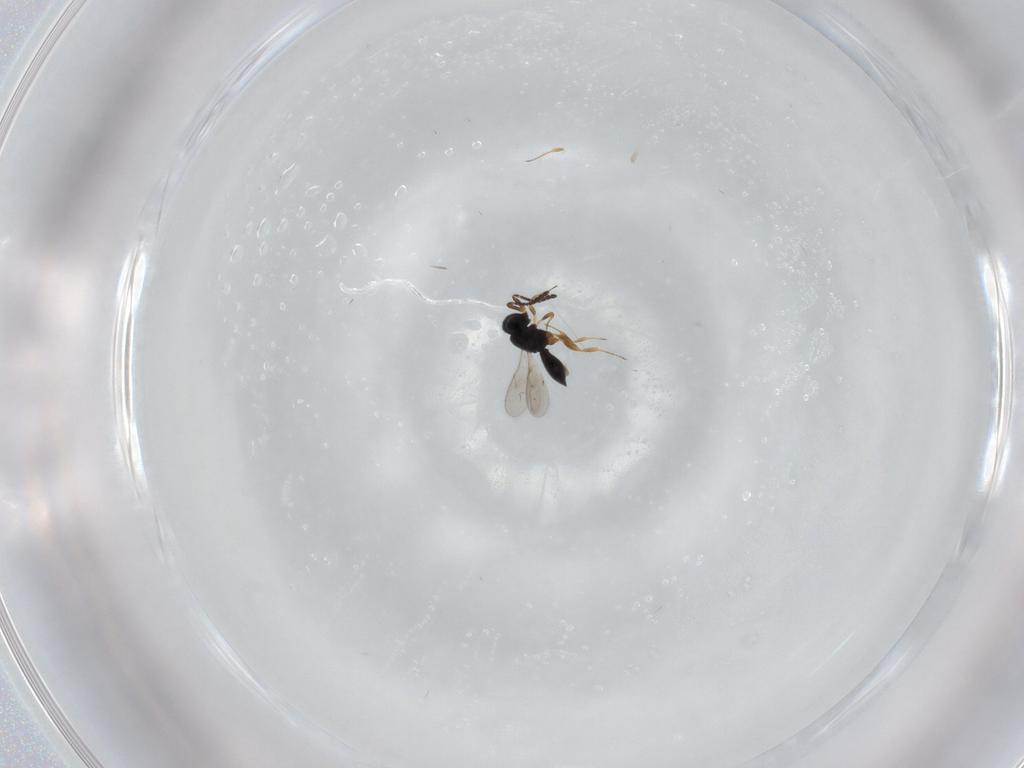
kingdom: Animalia
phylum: Arthropoda
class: Insecta
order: Hymenoptera
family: Scelionidae
